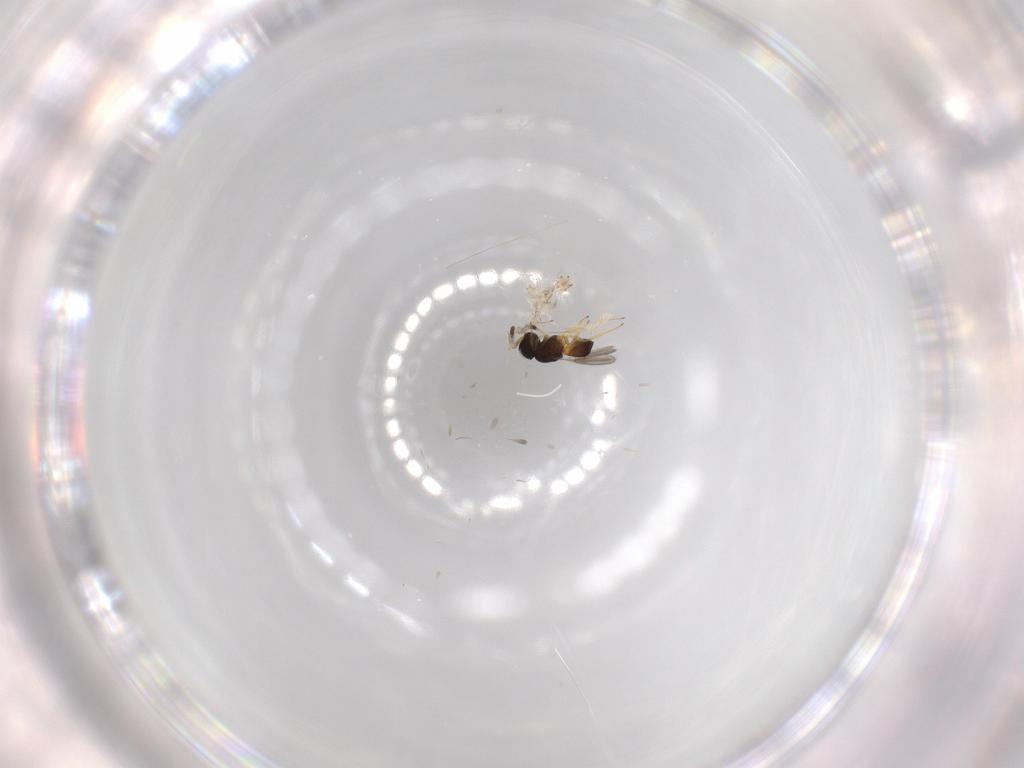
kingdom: Animalia
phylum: Arthropoda
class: Insecta
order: Hymenoptera
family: Scelionidae
